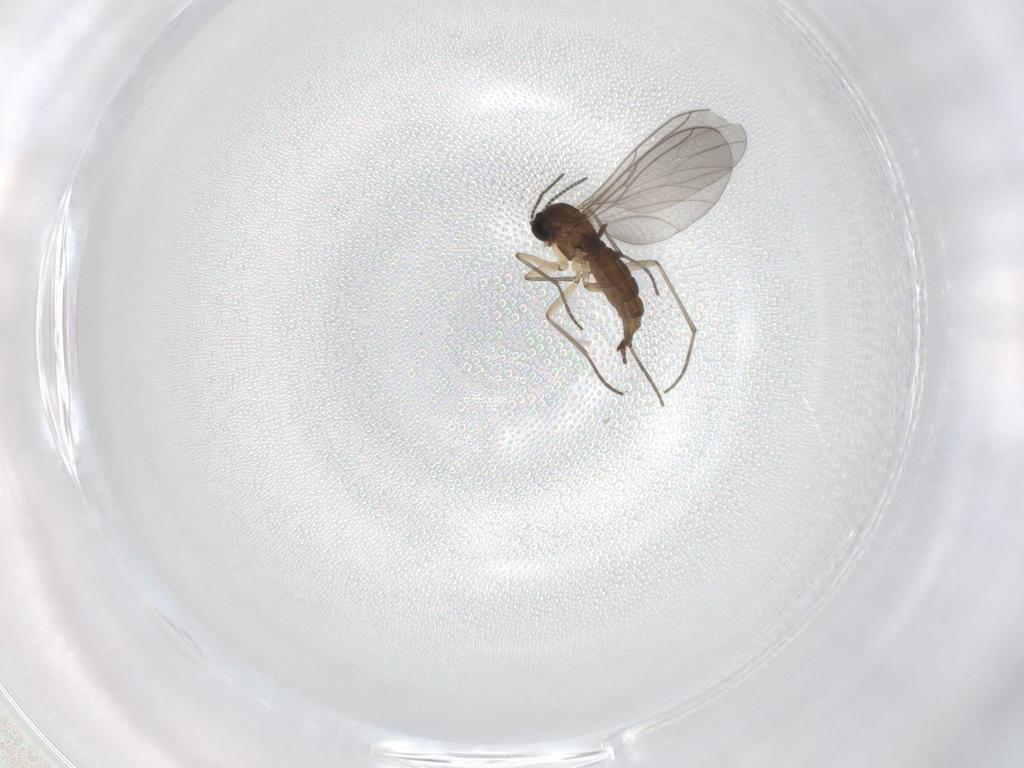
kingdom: Animalia
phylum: Arthropoda
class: Insecta
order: Diptera
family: Sciaridae
